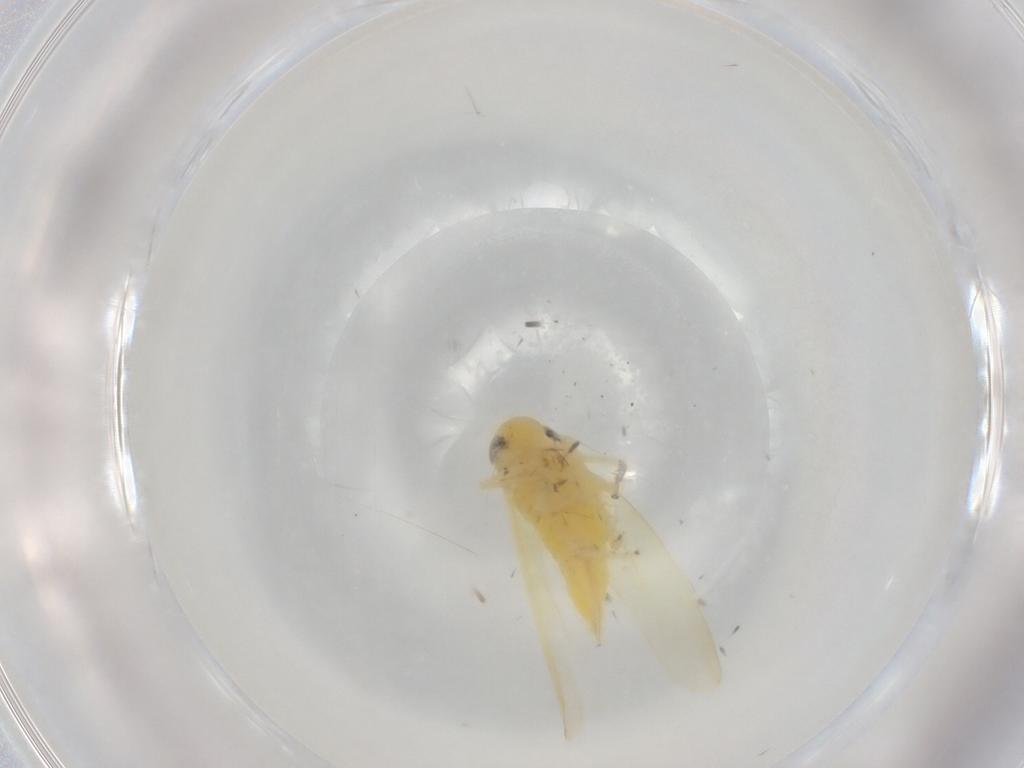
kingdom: Animalia
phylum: Arthropoda
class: Insecta
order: Hemiptera
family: Cicadellidae
